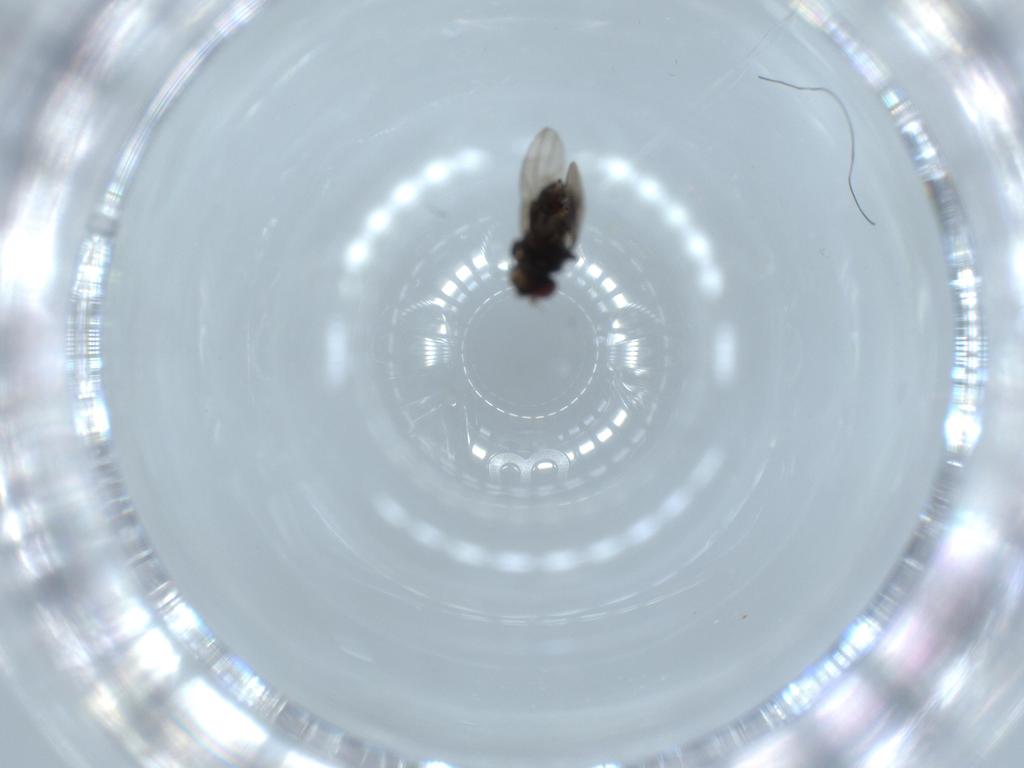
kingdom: Animalia
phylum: Arthropoda
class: Insecta
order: Diptera
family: Ephydridae
